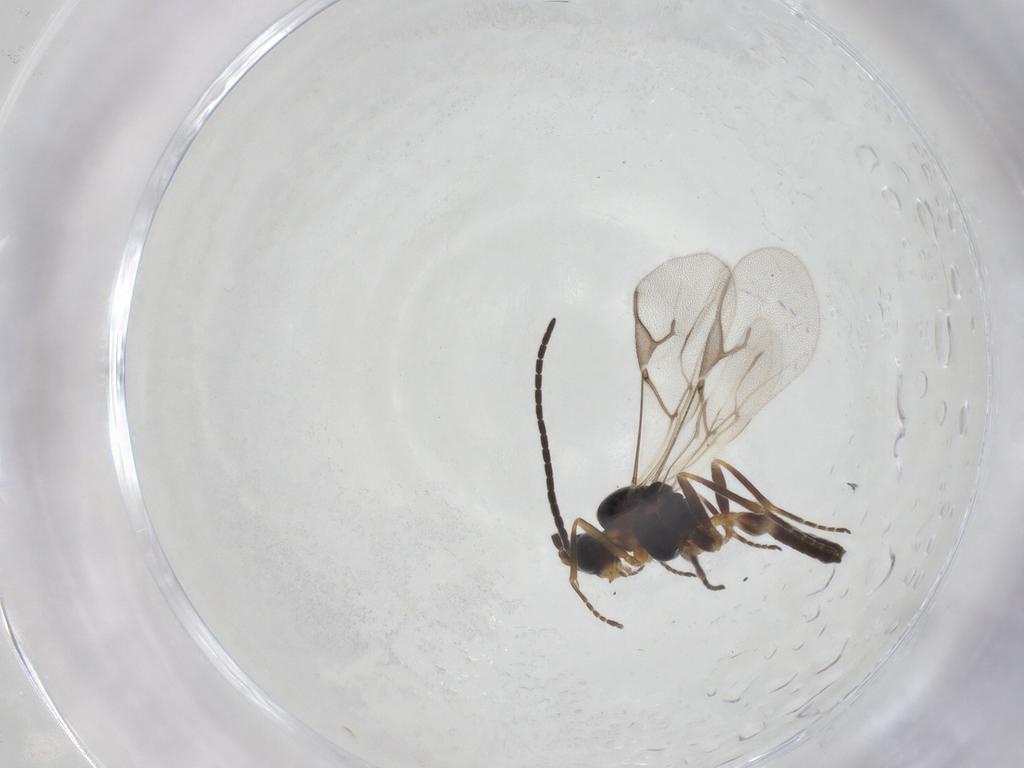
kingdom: Animalia
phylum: Arthropoda
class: Insecta
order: Hymenoptera
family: Braconidae
